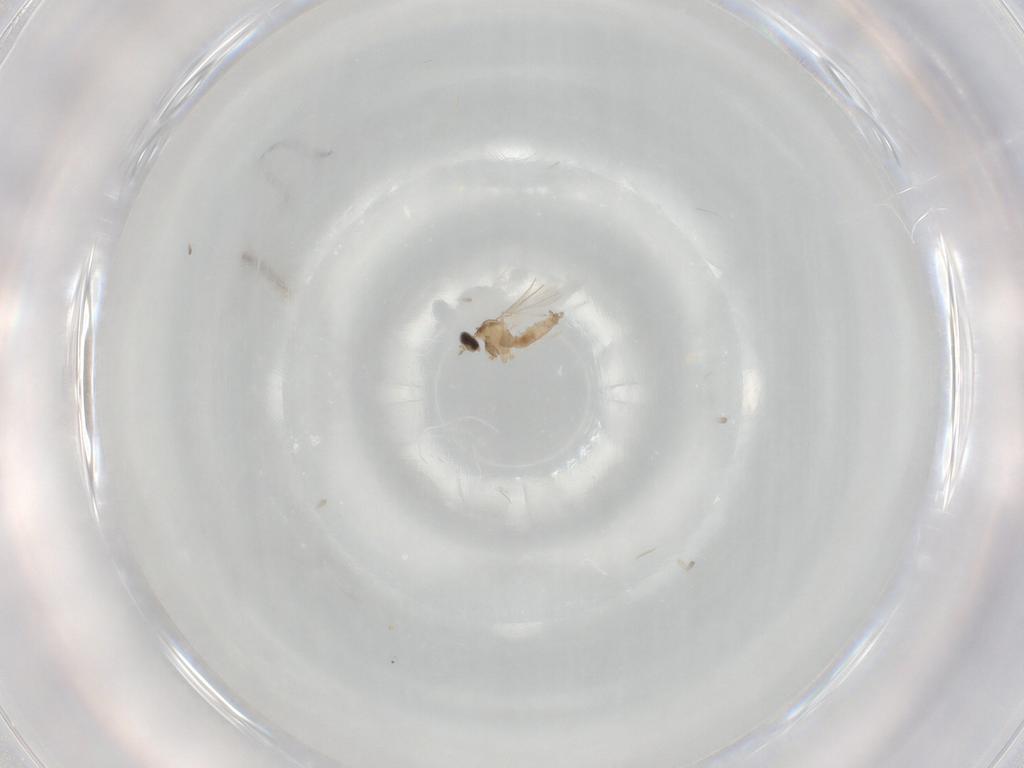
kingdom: Animalia
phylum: Arthropoda
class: Insecta
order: Diptera
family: Cecidomyiidae
